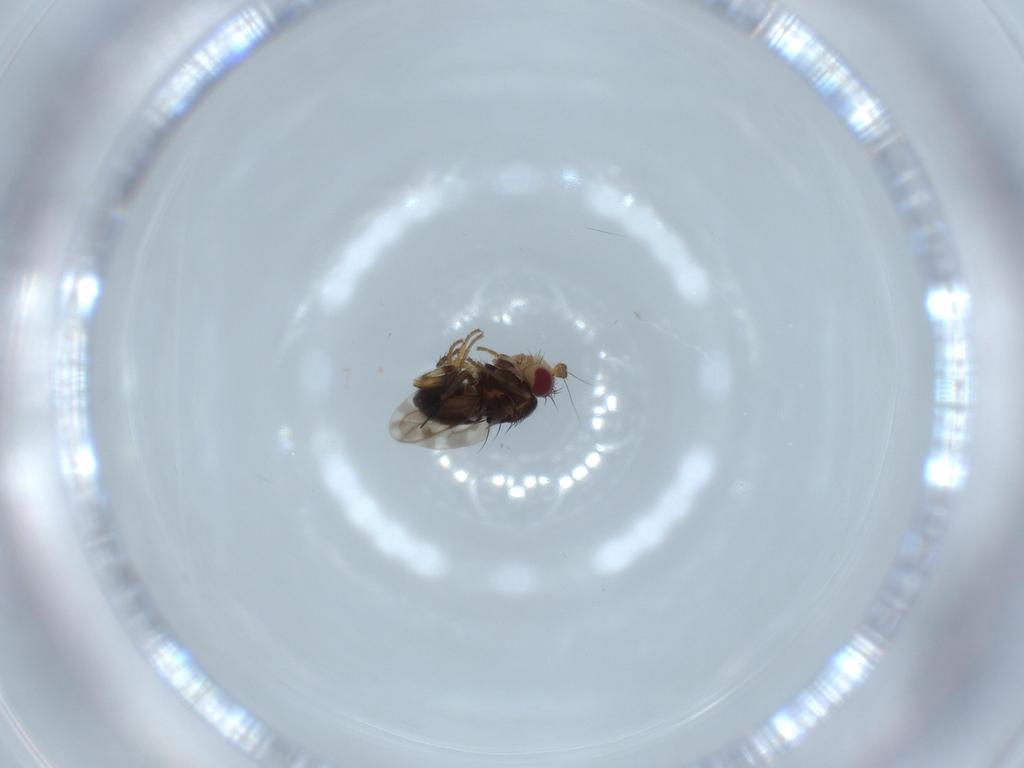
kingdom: Animalia
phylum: Arthropoda
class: Insecta
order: Diptera
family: Sphaeroceridae
